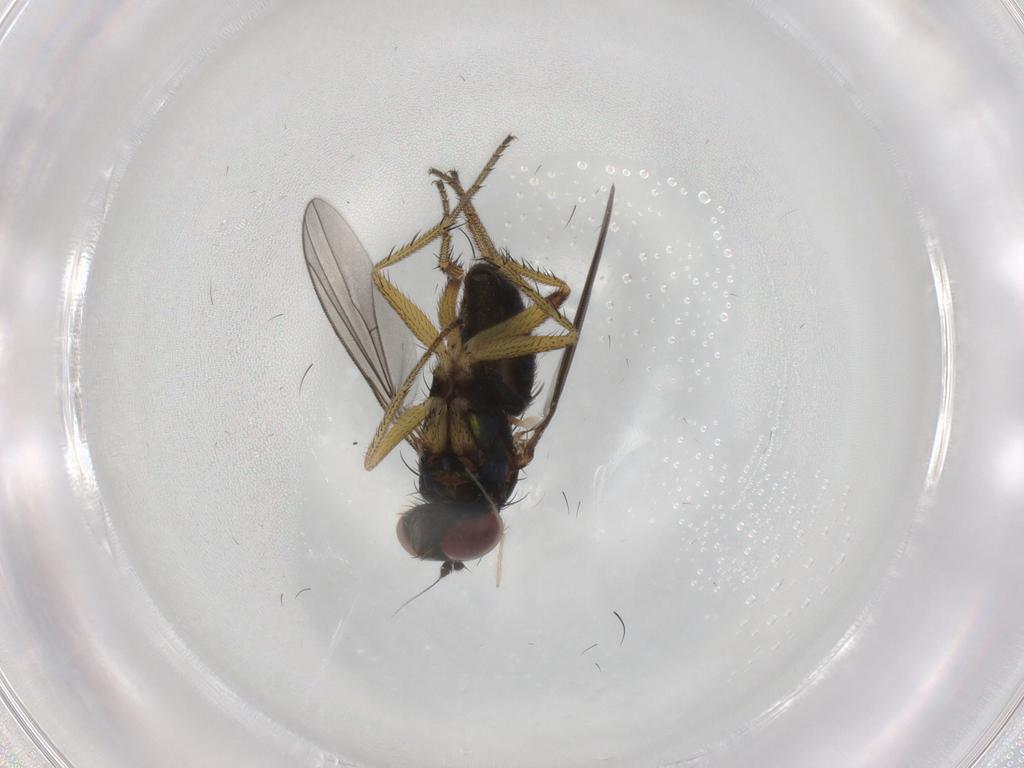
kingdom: Animalia
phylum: Arthropoda
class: Insecta
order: Diptera
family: Dolichopodidae
